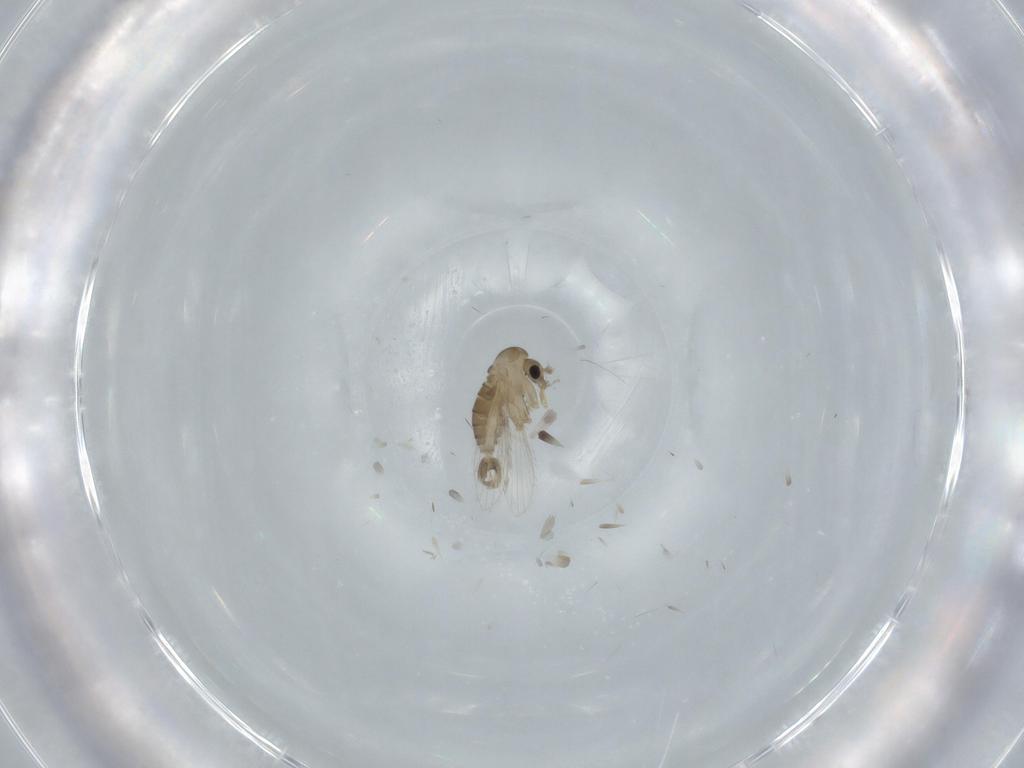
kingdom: Animalia
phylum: Arthropoda
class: Insecta
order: Diptera
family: Psychodidae
